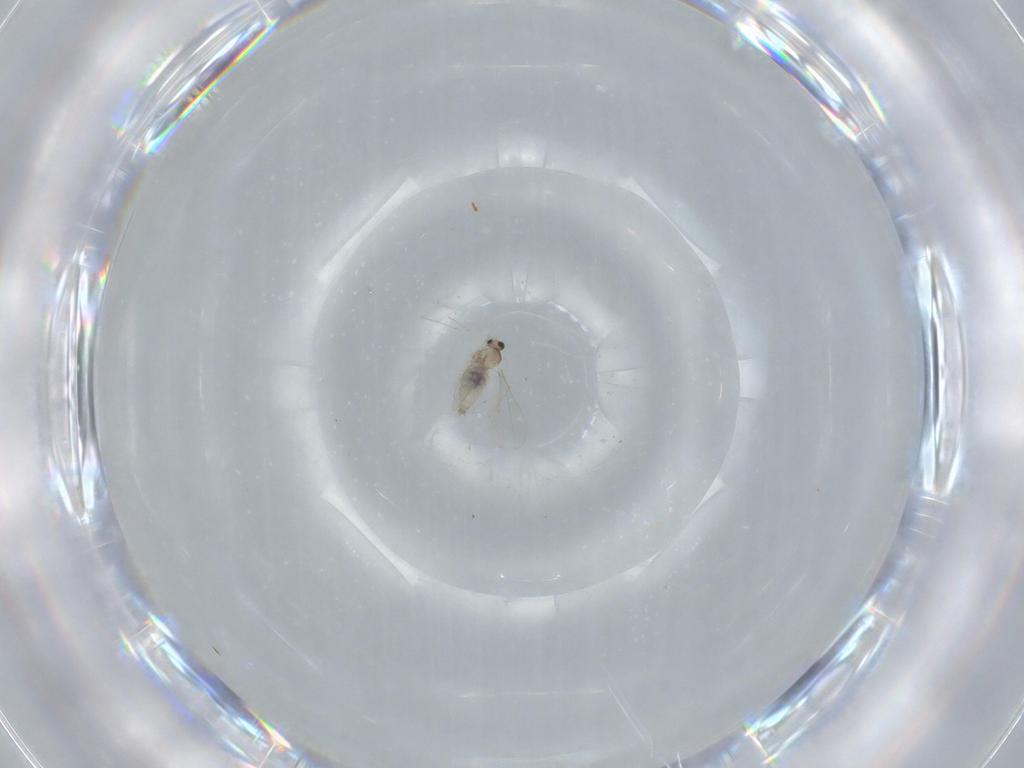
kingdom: Animalia
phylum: Arthropoda
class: Insecta
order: Diptera
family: Cecidomyiidae
